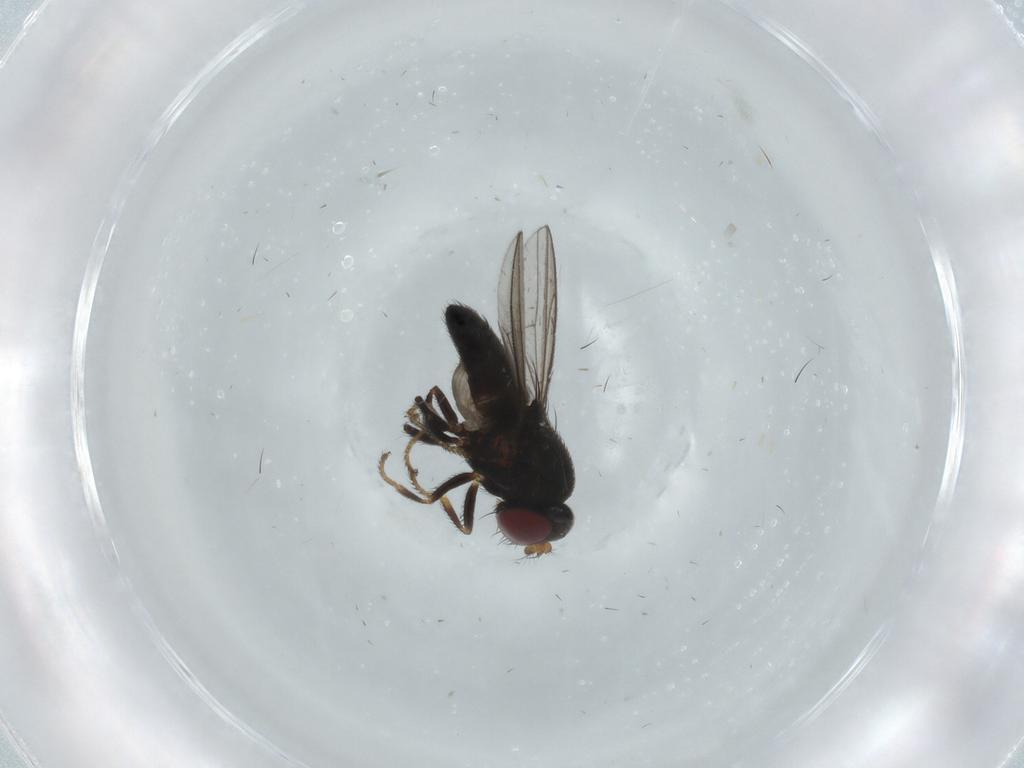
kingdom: Animalia
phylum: Arthropoda
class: Insecta
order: Diptera
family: Ephydridae
